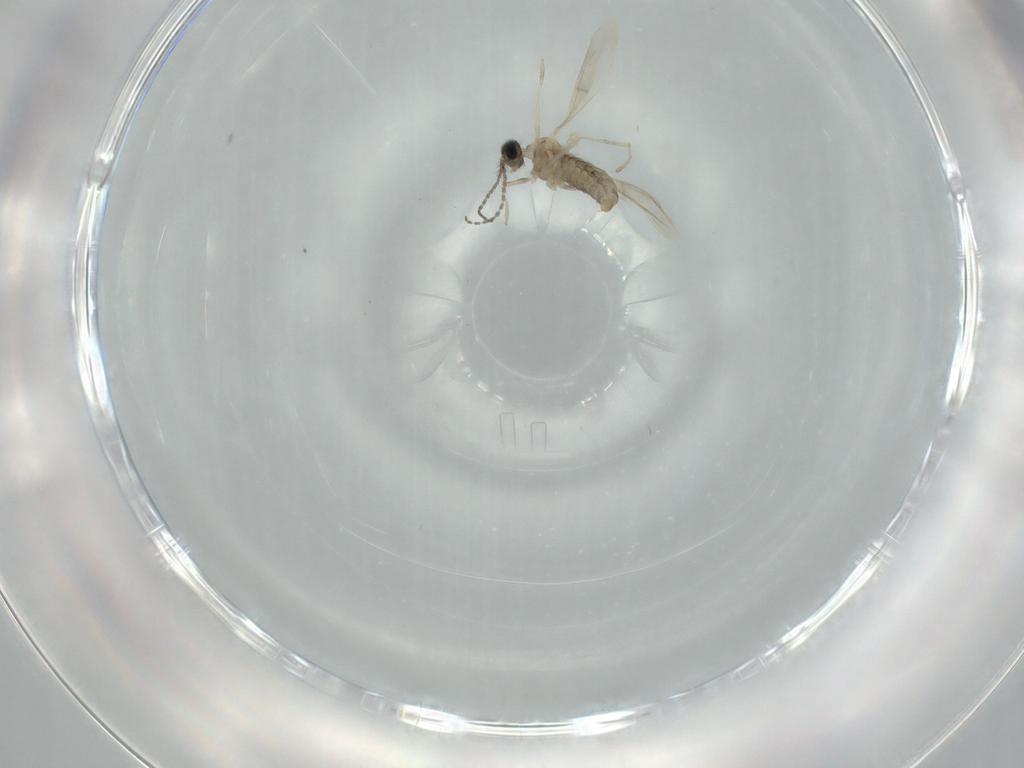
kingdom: Animalia
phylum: Arthropoda
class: Insecta
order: Diptera
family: Cecidomyiidae
